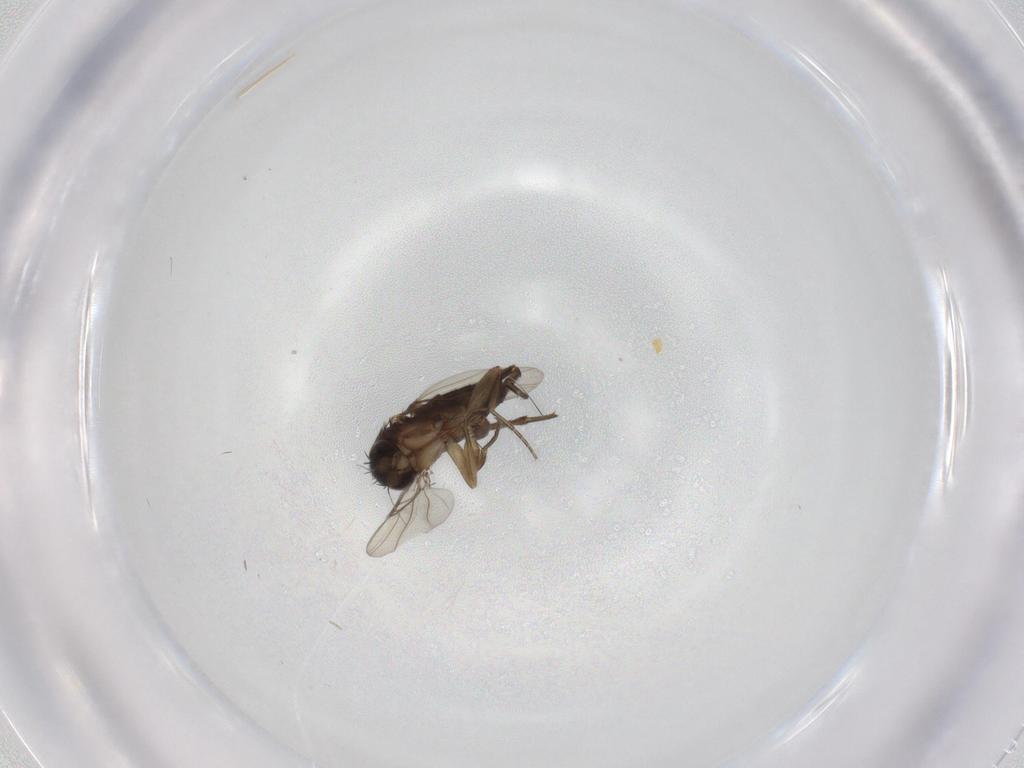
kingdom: Animalia
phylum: Arthropoda
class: Insecta
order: Diptera
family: Phoridae
